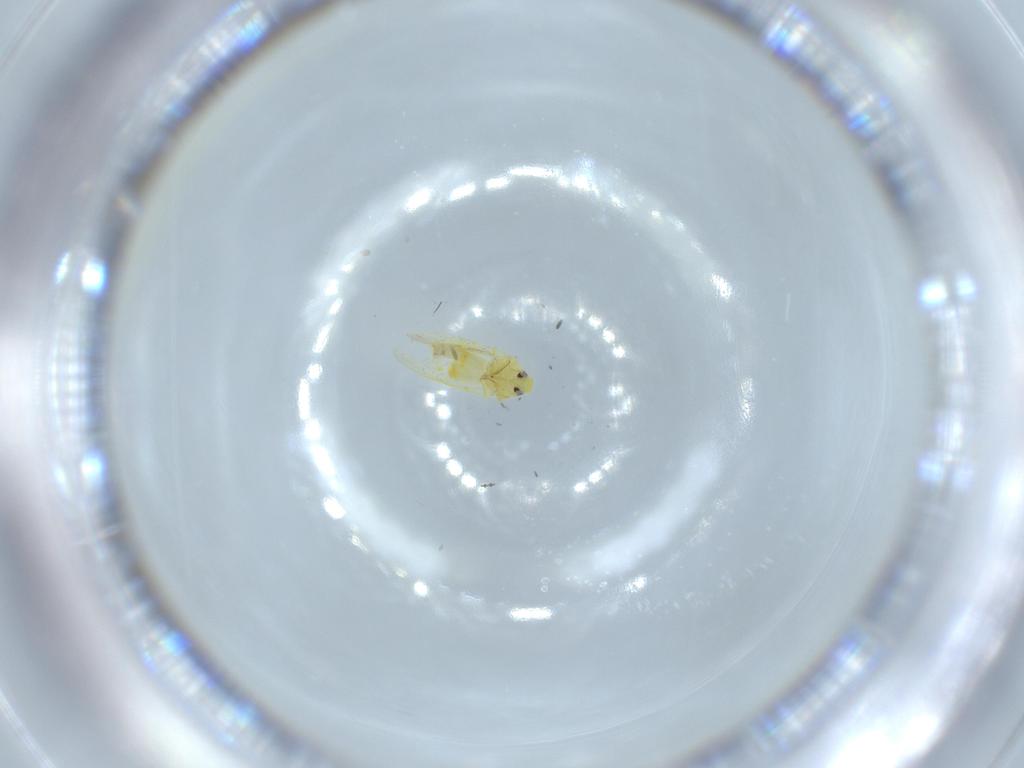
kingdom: Animalia
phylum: Arthropoda
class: Insecta
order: Hemiptera
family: Aleyrodidae
